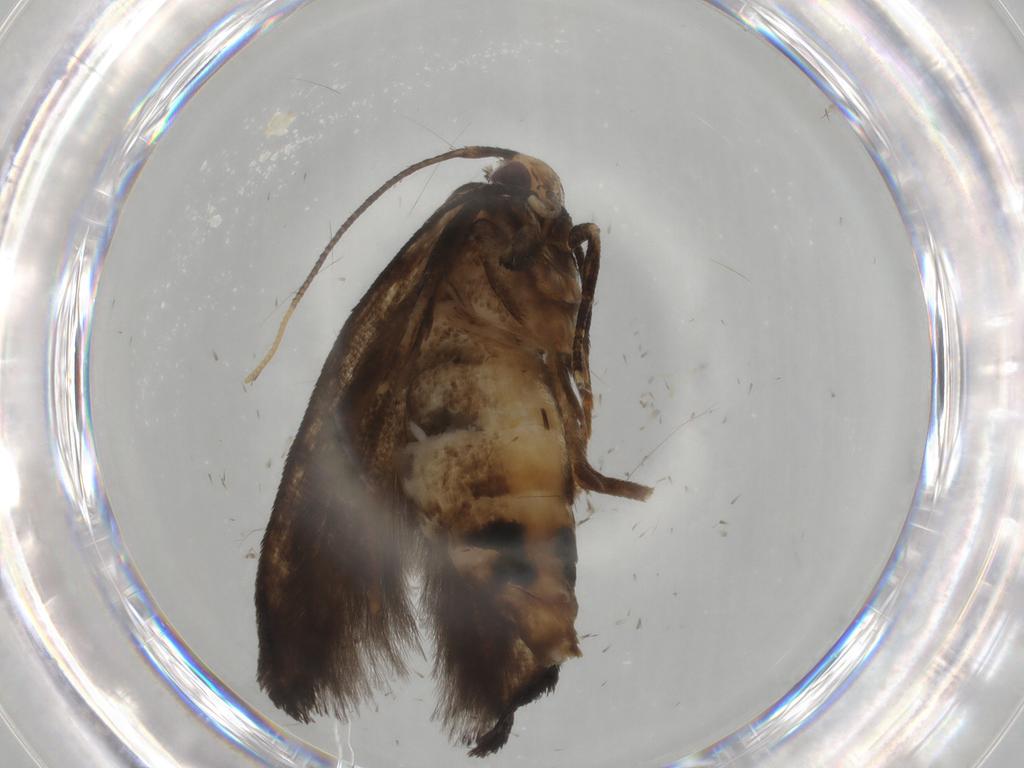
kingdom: Animalia
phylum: Arthropoda
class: Insecta
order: Lepidoptera
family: Gelechiidae
